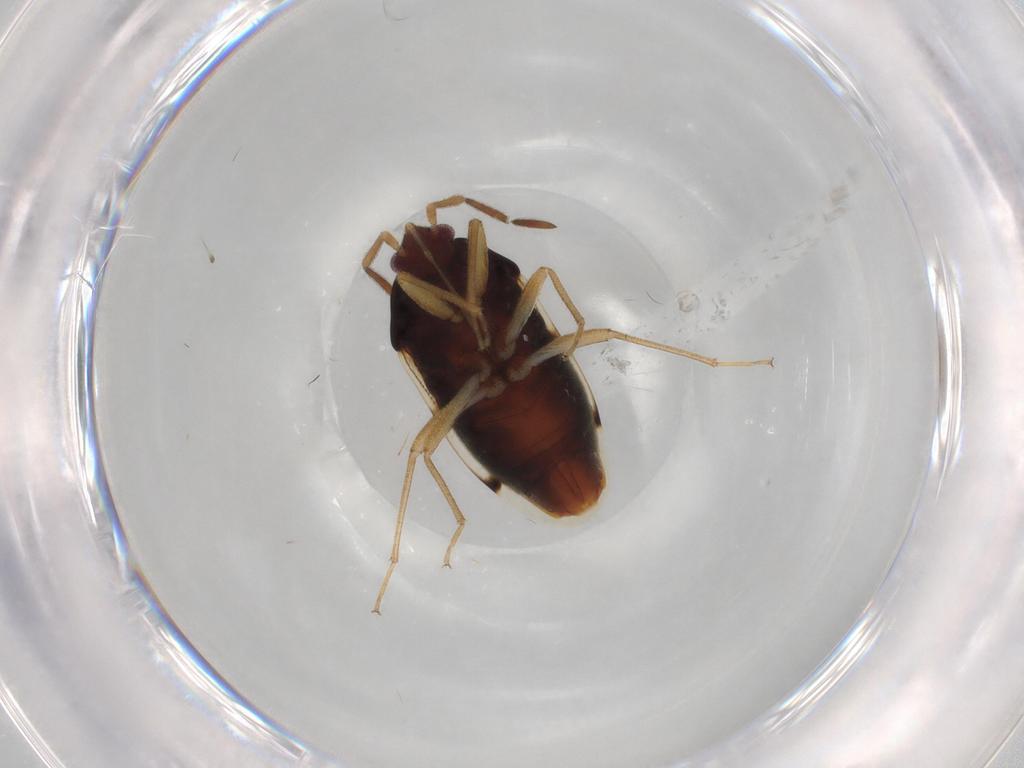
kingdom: Animalia
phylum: Arthropoda
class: Insecta
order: Hemiptera
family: Rhyparochromidae
